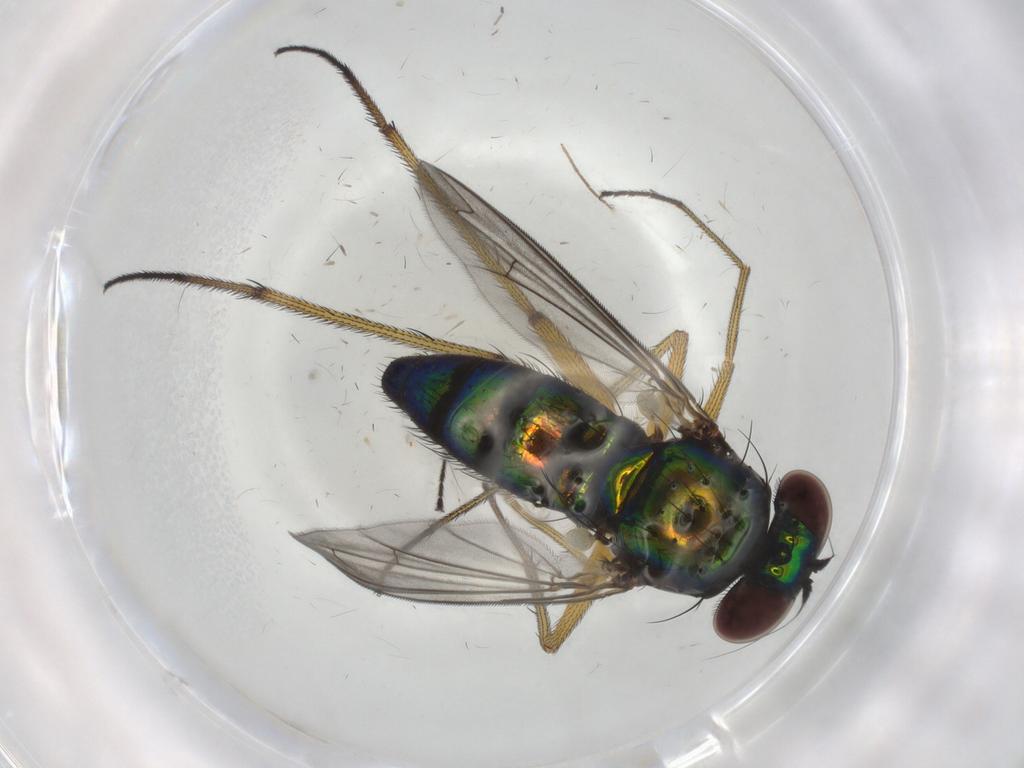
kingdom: Animalia
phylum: Arthropoda
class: Insecta
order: Diptera
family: Dolichopodidae
